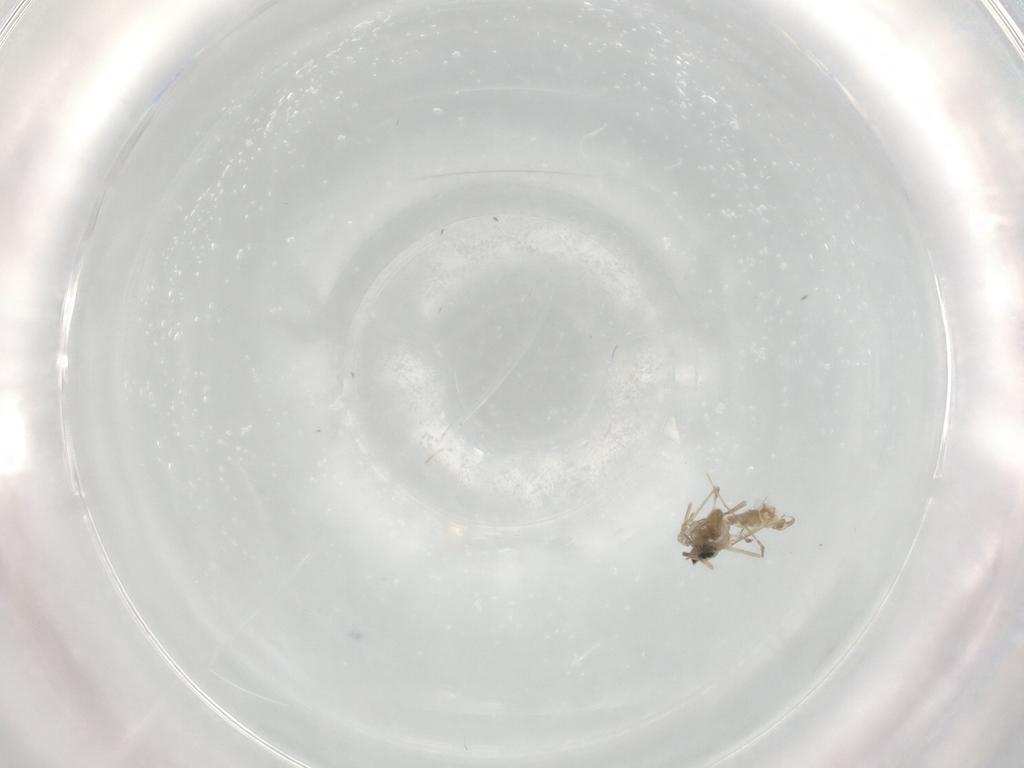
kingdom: Animalia
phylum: Arthropoda
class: Insecta
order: Diptera
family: Cecidomyiidae
